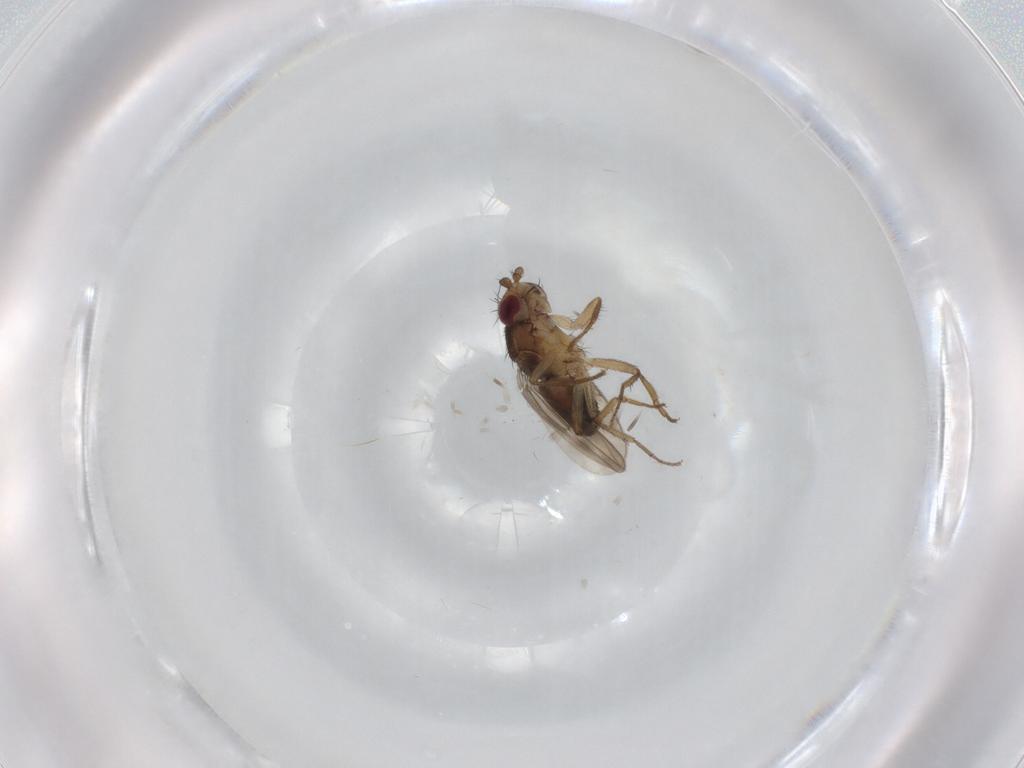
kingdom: Animalia
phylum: Arthropoda
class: Insecta
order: Diptera
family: Sphaeroceridae
